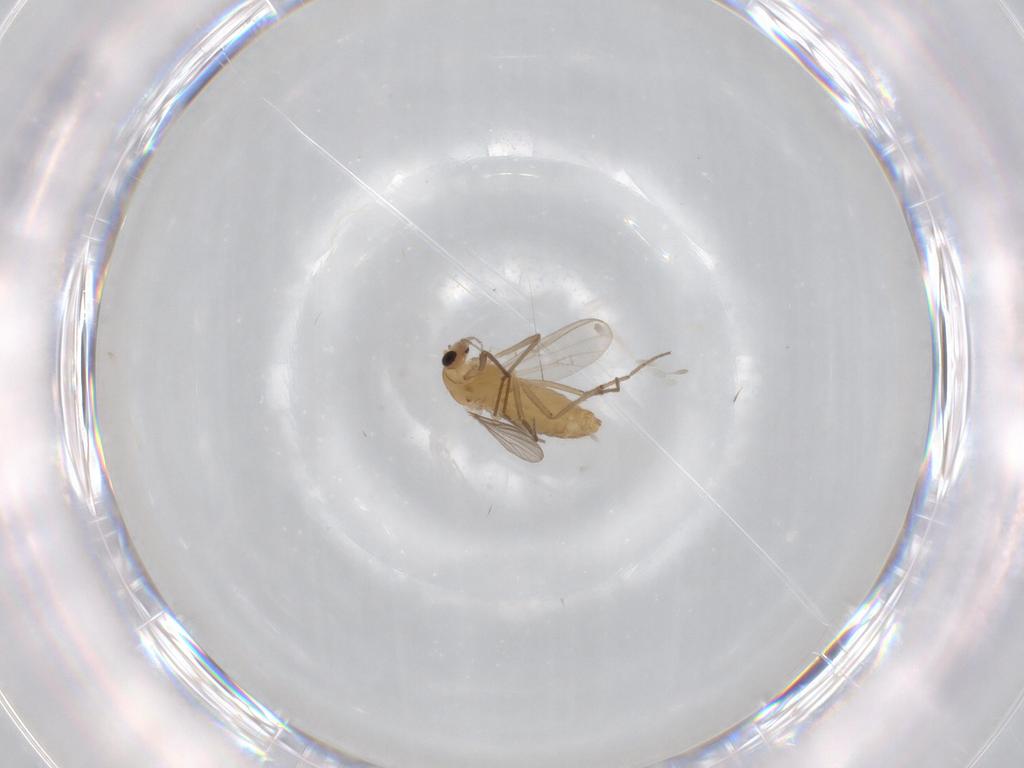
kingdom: Animalia
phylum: Arthropoda
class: Insecta
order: Diptera
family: Chironomidae
